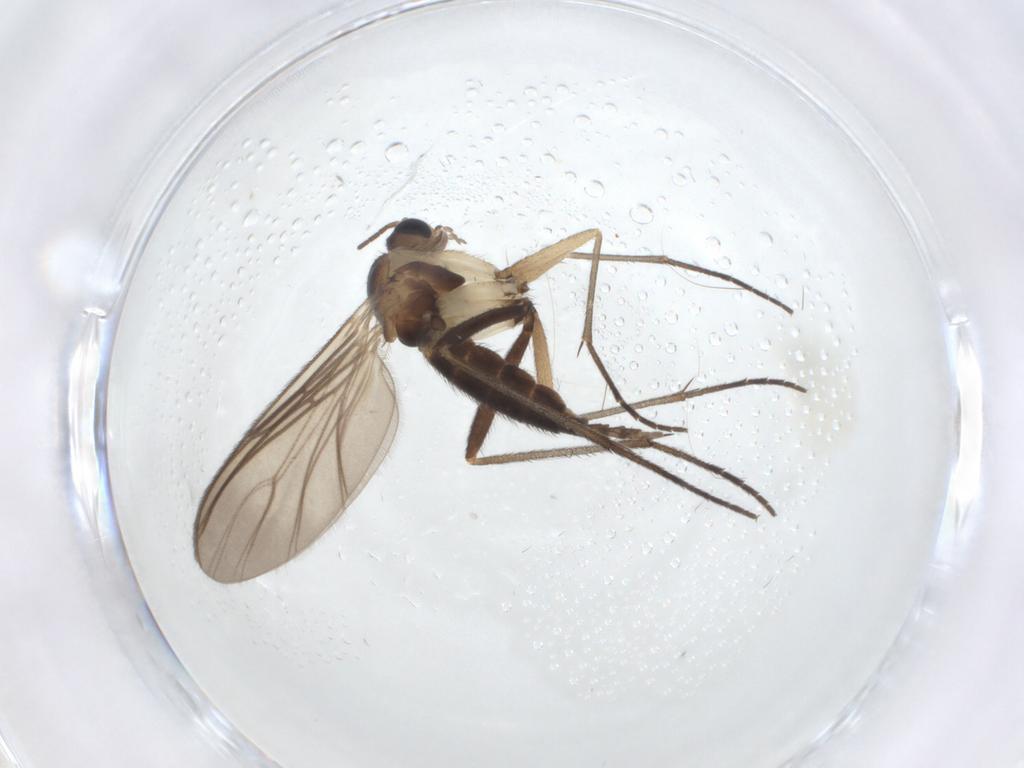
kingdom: Animalia
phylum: Arthropoda
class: Insecta
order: Diptera
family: Sciaridae
